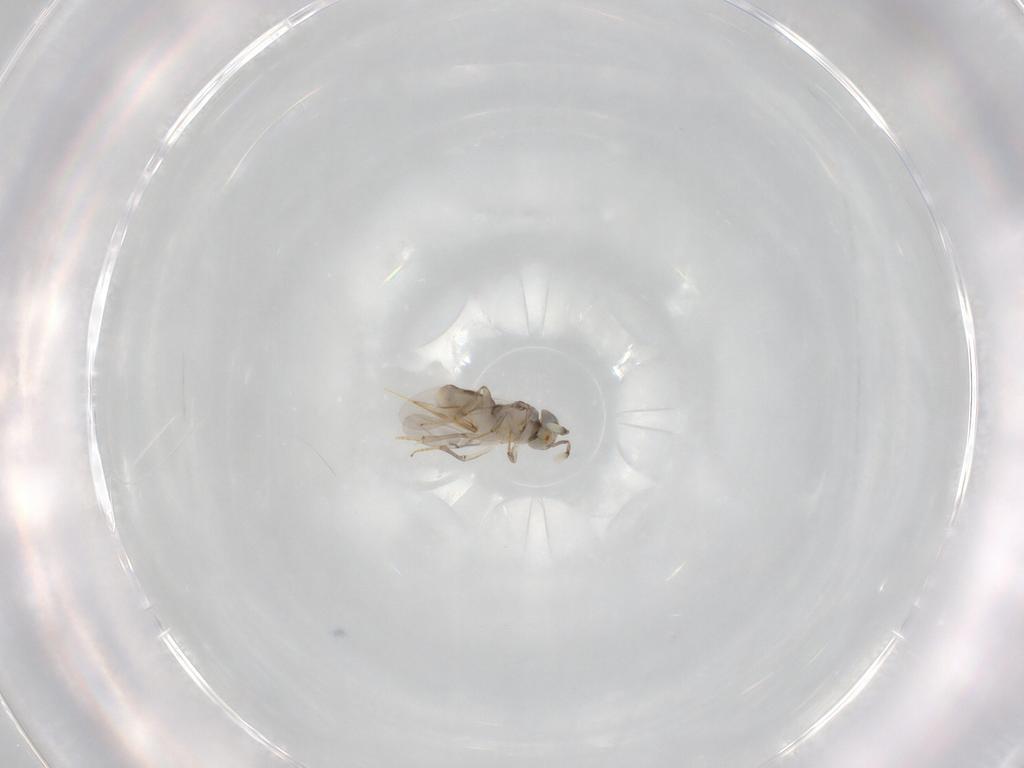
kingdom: Animalia
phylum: Arthropoda
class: Insecta
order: Hymenoptera
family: Encyrtidae
